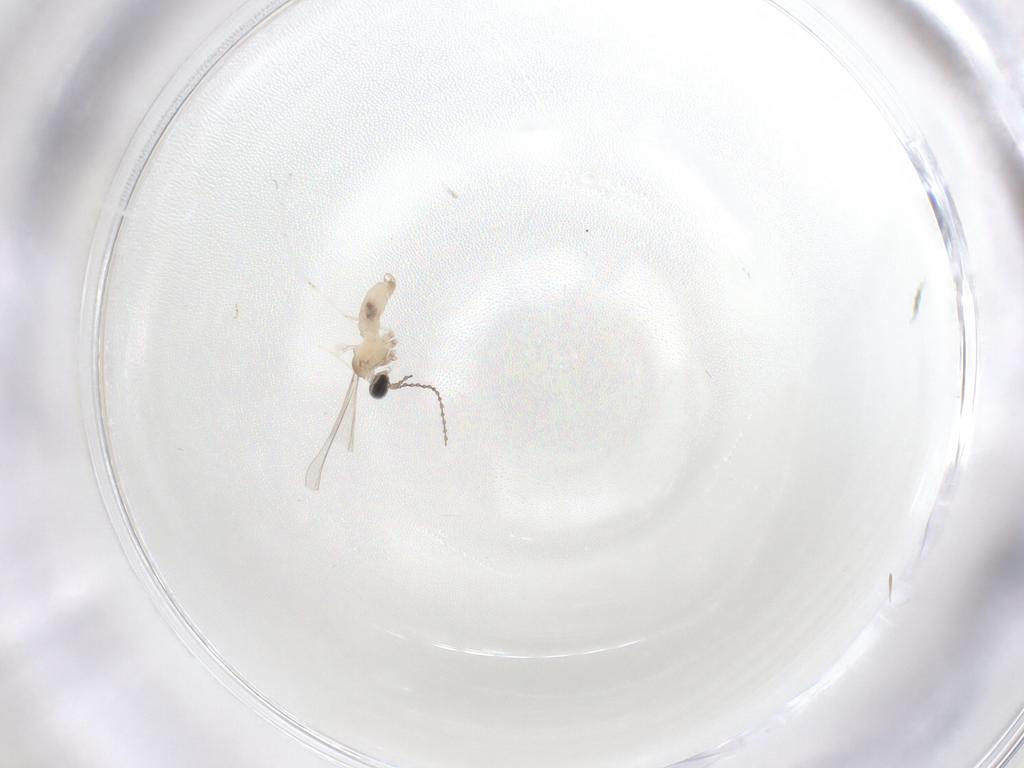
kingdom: Animalia
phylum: Arthropoda
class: Insecta
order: Diptera
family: Cecidomyiidae
